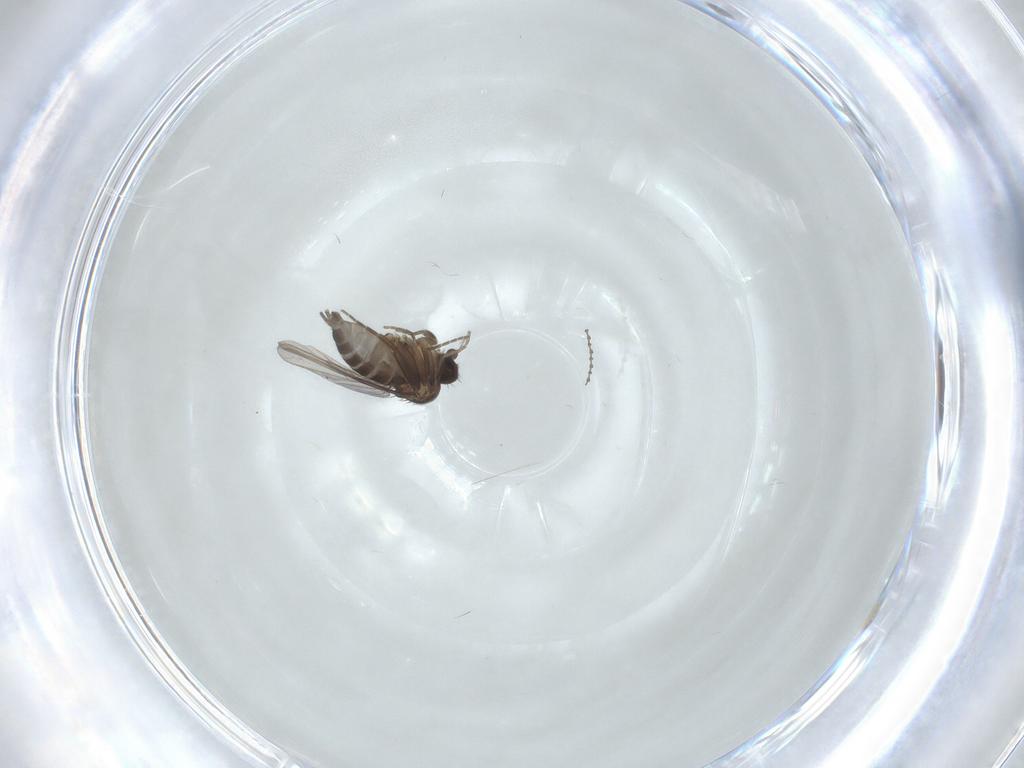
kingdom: Animalia
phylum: Arthropoda
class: Insecta
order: Diptera
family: Phoridae
